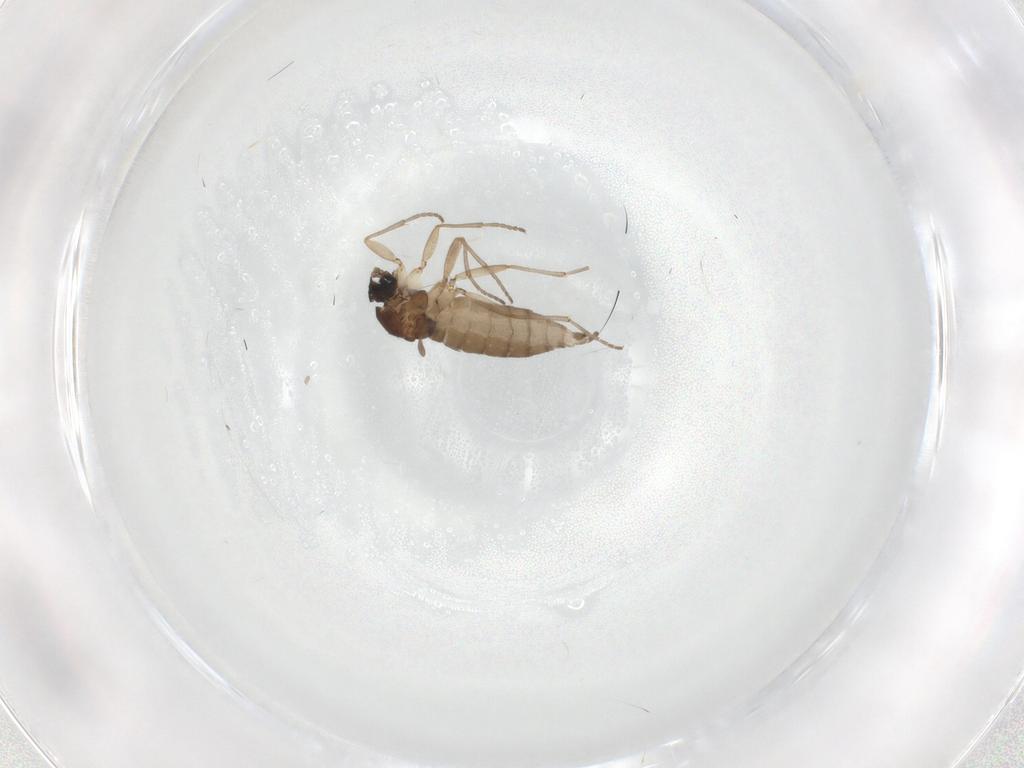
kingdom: Animalia
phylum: Arthropoda
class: Insecta
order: Diptera
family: Sciaridae
